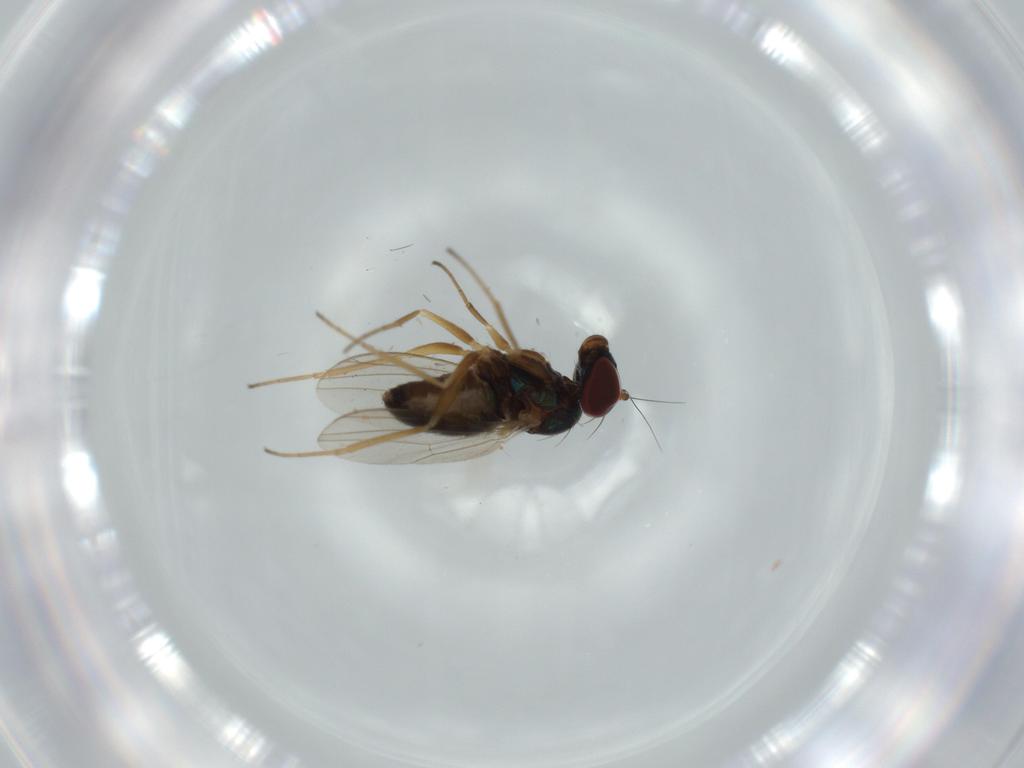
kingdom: Animalia
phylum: Arthropoda
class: Insecta
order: Diptera
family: Dolichopodidae
